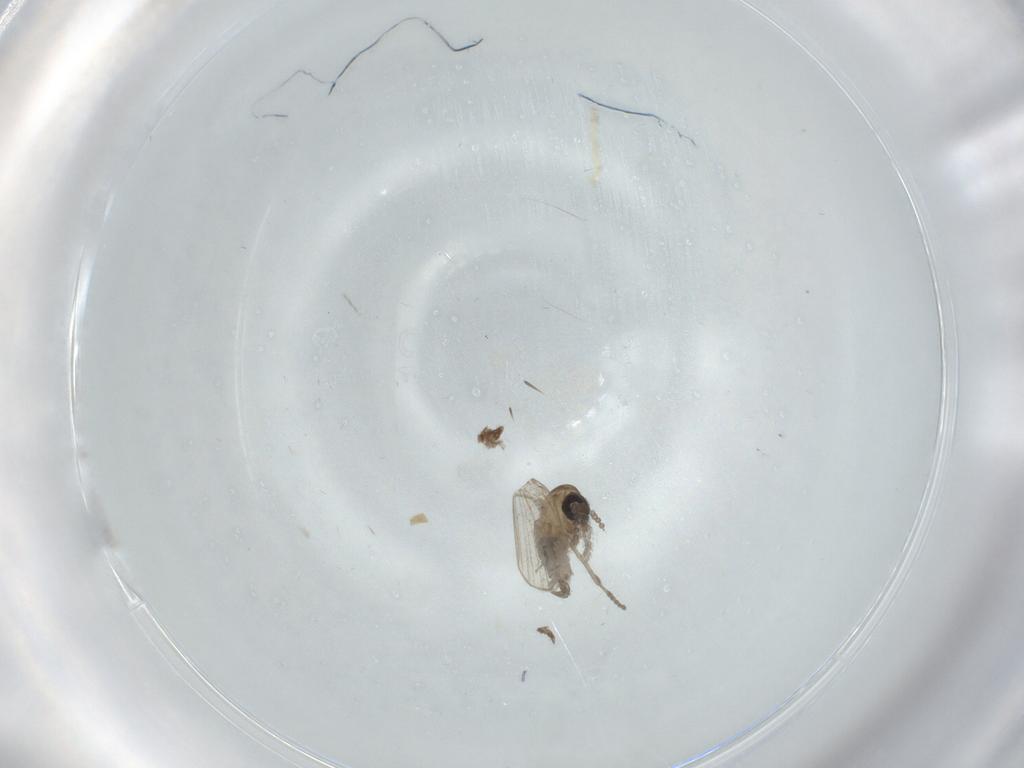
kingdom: Animalia
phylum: Arthropoda
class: Insecta
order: Diptera
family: Psychodidae
